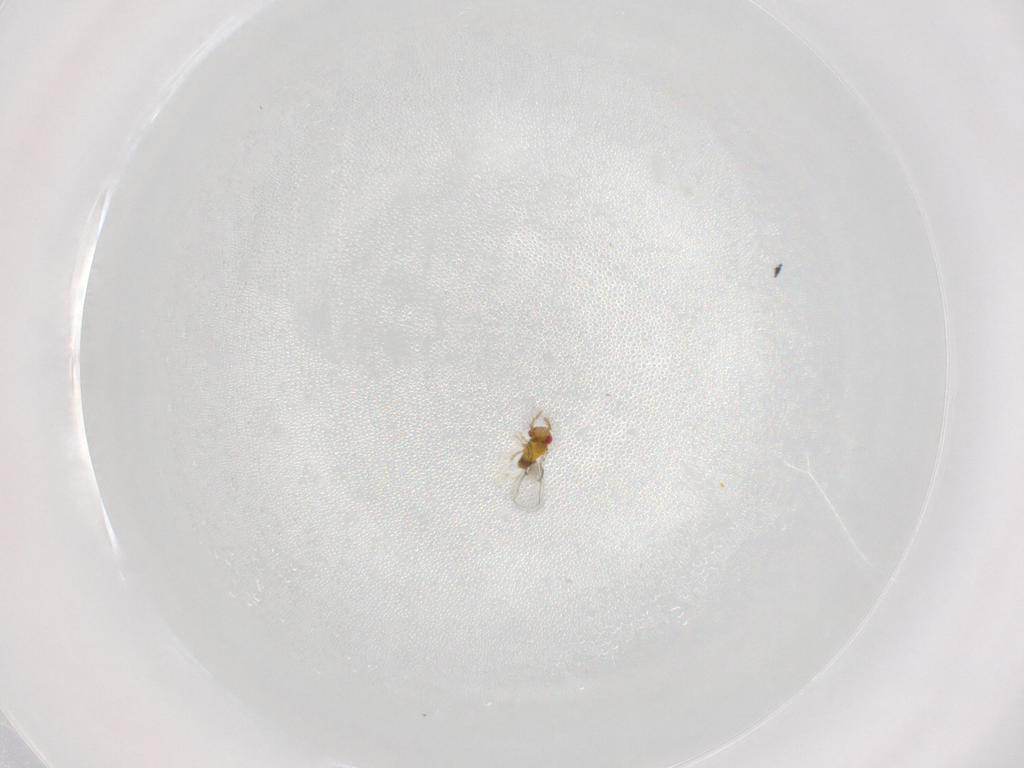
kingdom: Animalia
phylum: Arthropoda
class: Insecta
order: Hymenoptera
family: Trichogrammatidae
